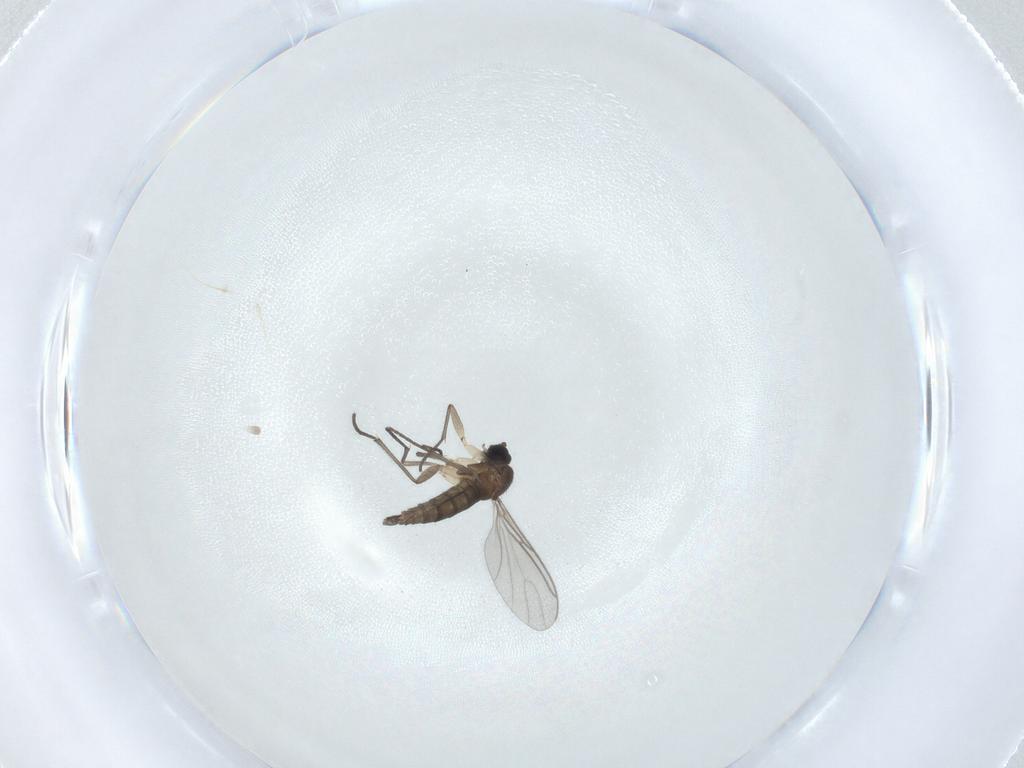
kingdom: Animalia
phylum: Arthropoda
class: Insecta
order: Diptera
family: Sciaridae
